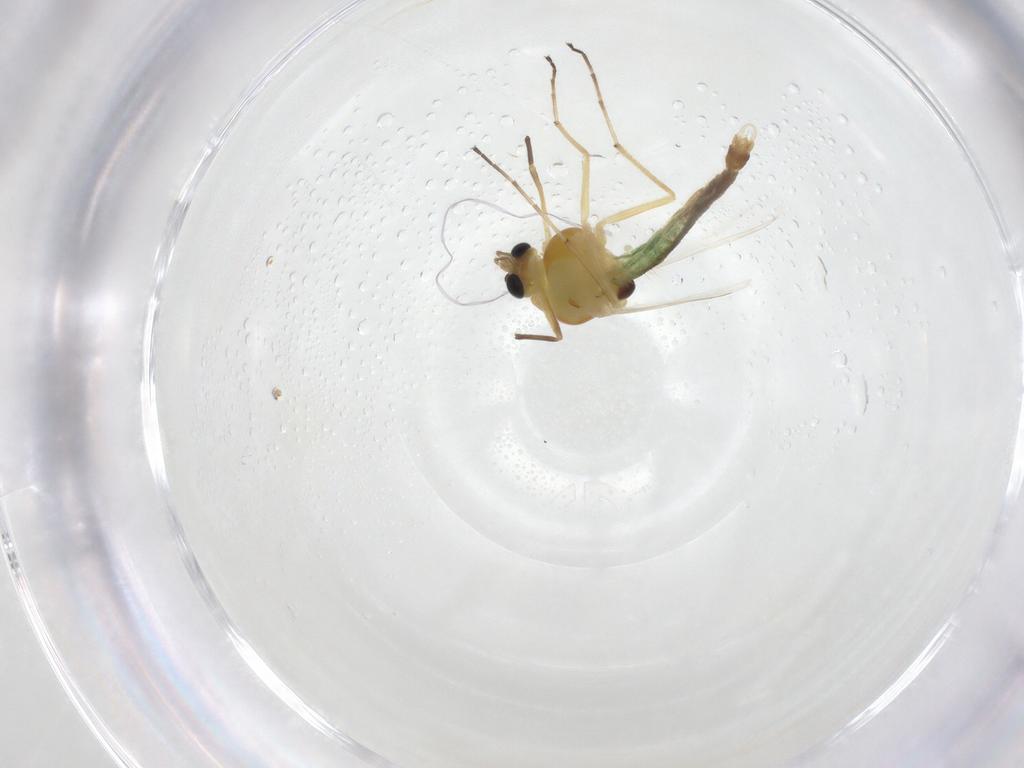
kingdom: Animalia
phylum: Arthropoda
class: Insecta
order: Diptera
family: Chironomidae
